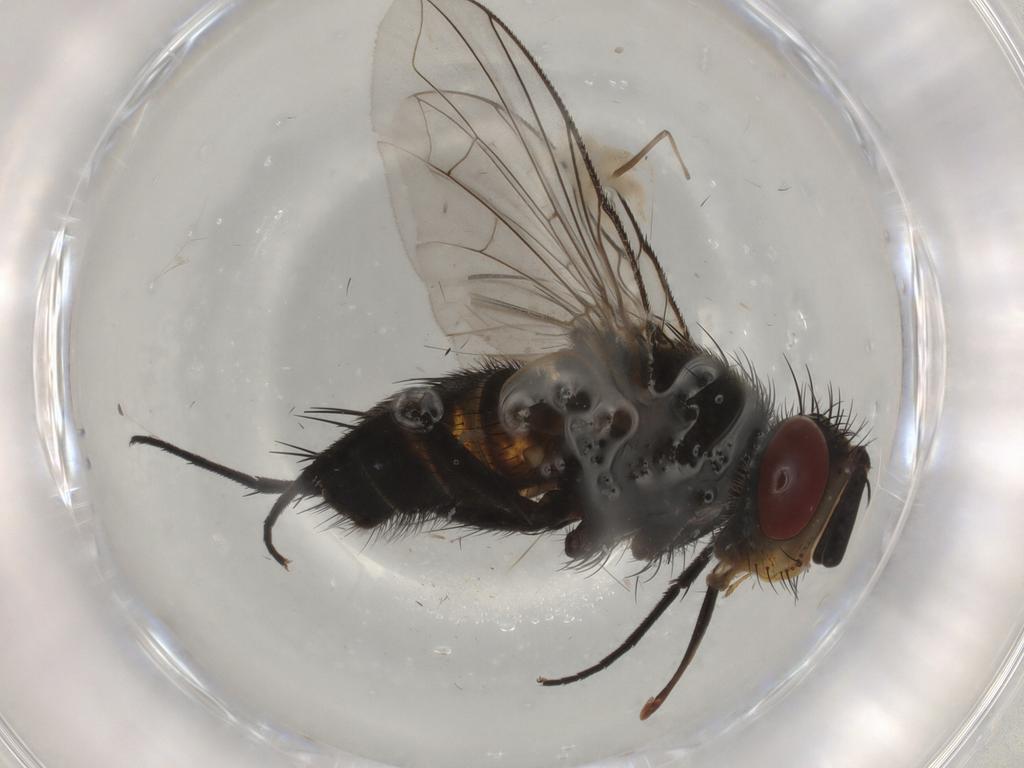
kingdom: Animalia
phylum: Arthropoda
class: Insecta
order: Diptera
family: Tachinidae
